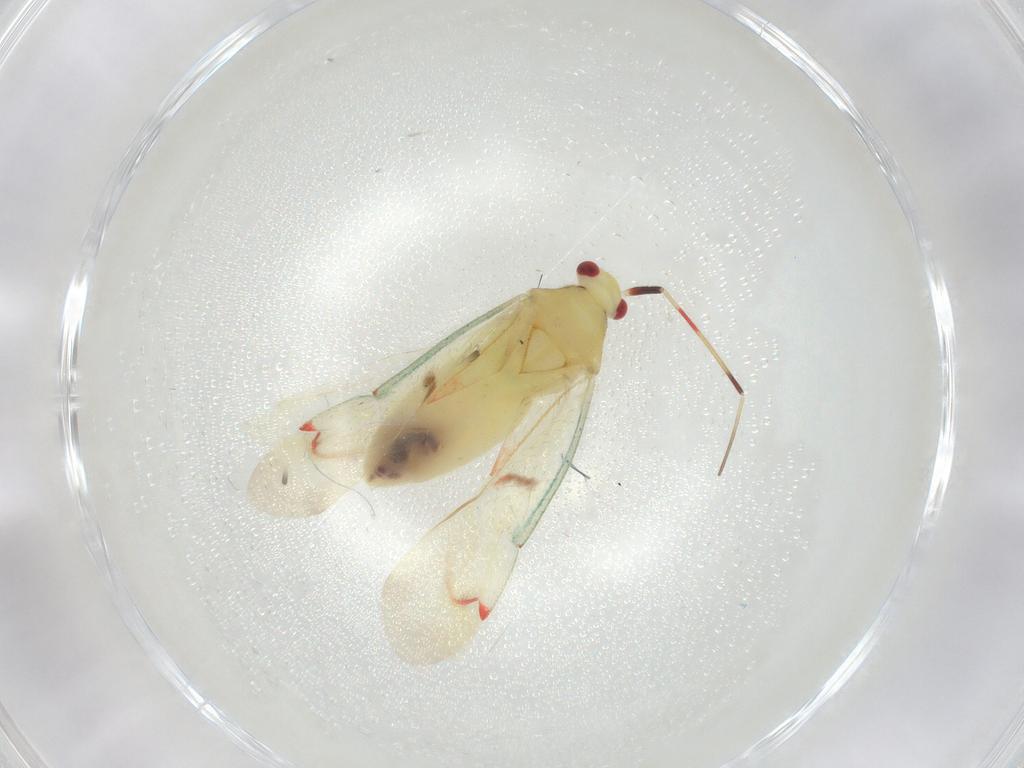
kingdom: Animalia
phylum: Arthropoda
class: Insecta
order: Hemiptera
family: Miridae
